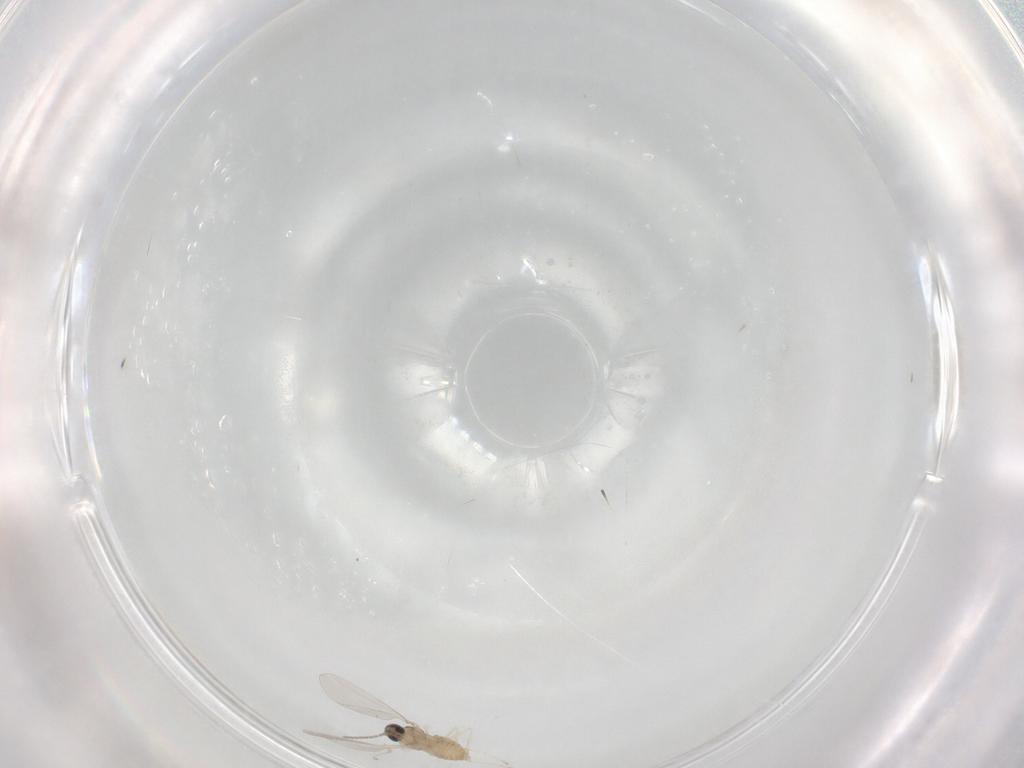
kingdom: Animalia
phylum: Arthropoda
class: Insecta
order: Diptera
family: Cecidomyiidae
